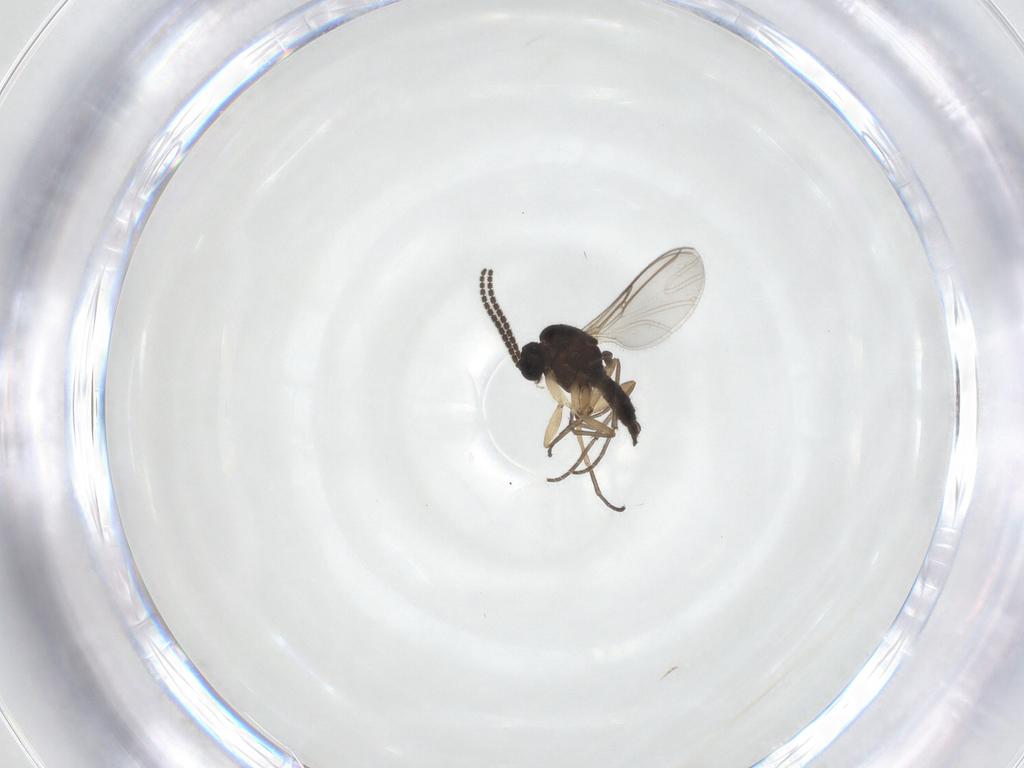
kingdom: Animalia
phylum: Arthropoda
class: Insecta
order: Diptera
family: Sciaridae
